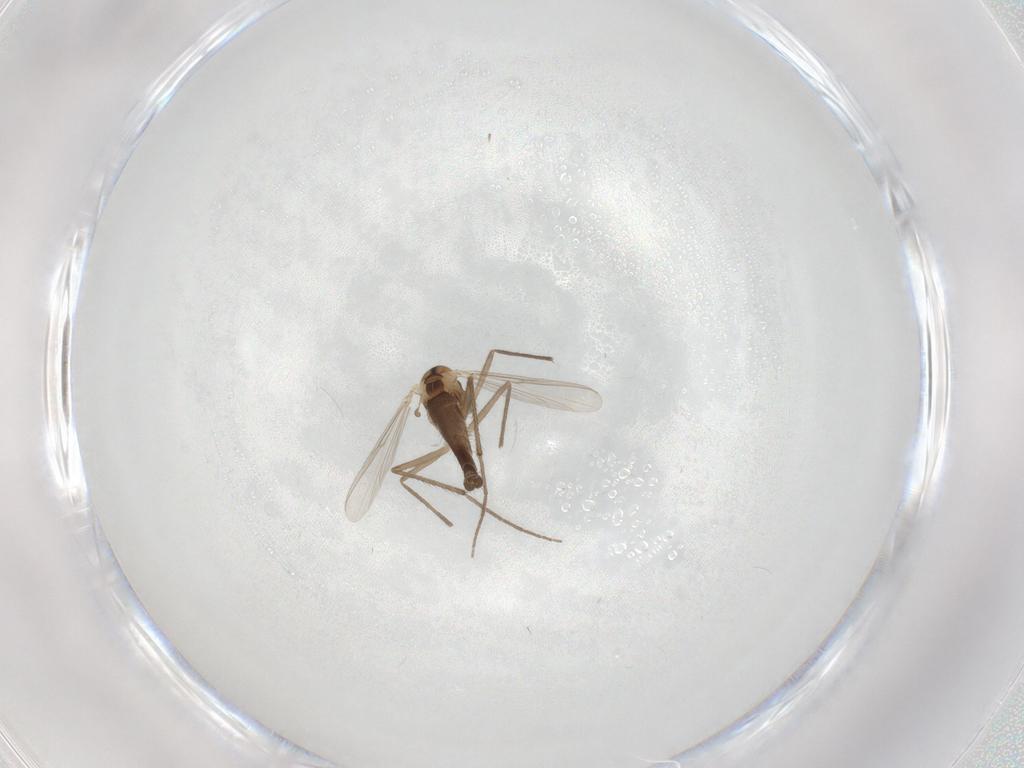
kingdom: Animalia
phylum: Arthropoda
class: Insecta
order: Diptera
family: Chironomidae
